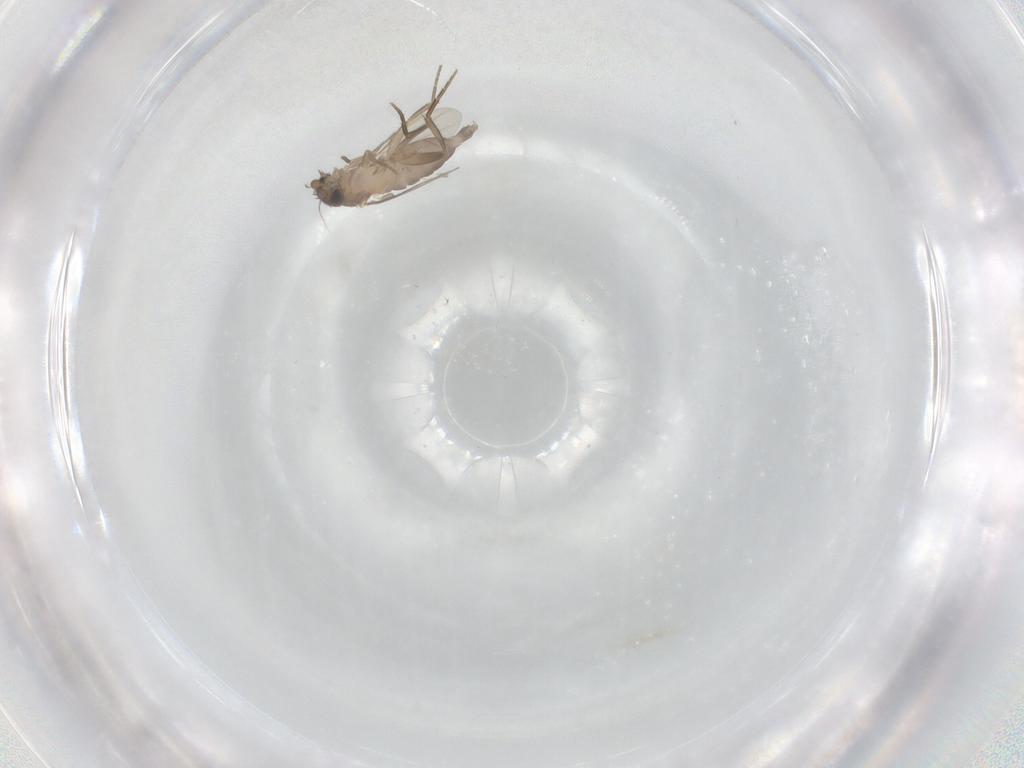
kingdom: Animalia
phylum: Arthropoda
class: Insecta
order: Diptera
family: Phoridae
